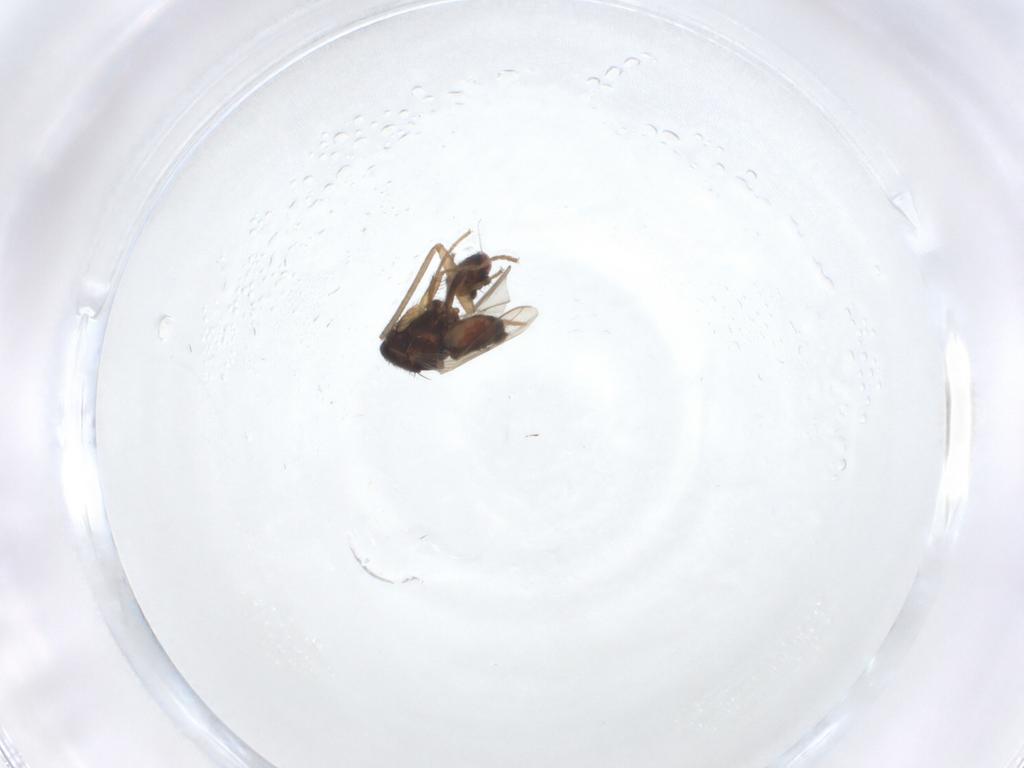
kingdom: Animalia
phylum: Arthropoda
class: Insecta
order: Diptera
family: Sphaeroceridae
